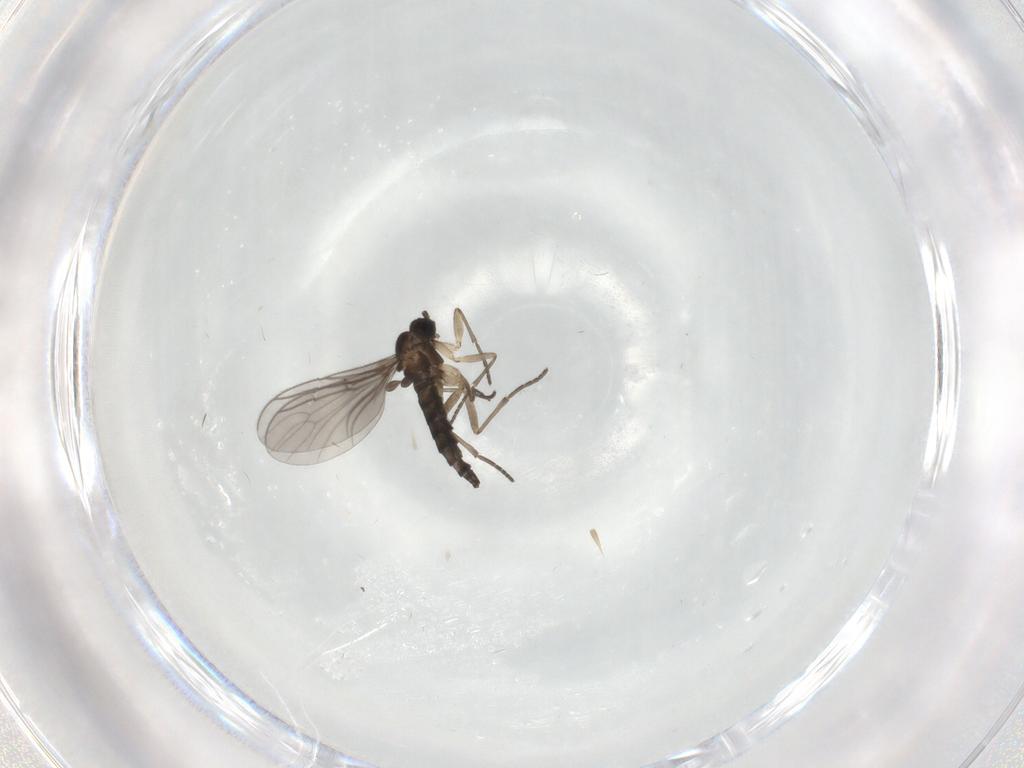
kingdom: Animalia
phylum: Arthropoda
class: Insecta
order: Diptera
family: Sciaridae
